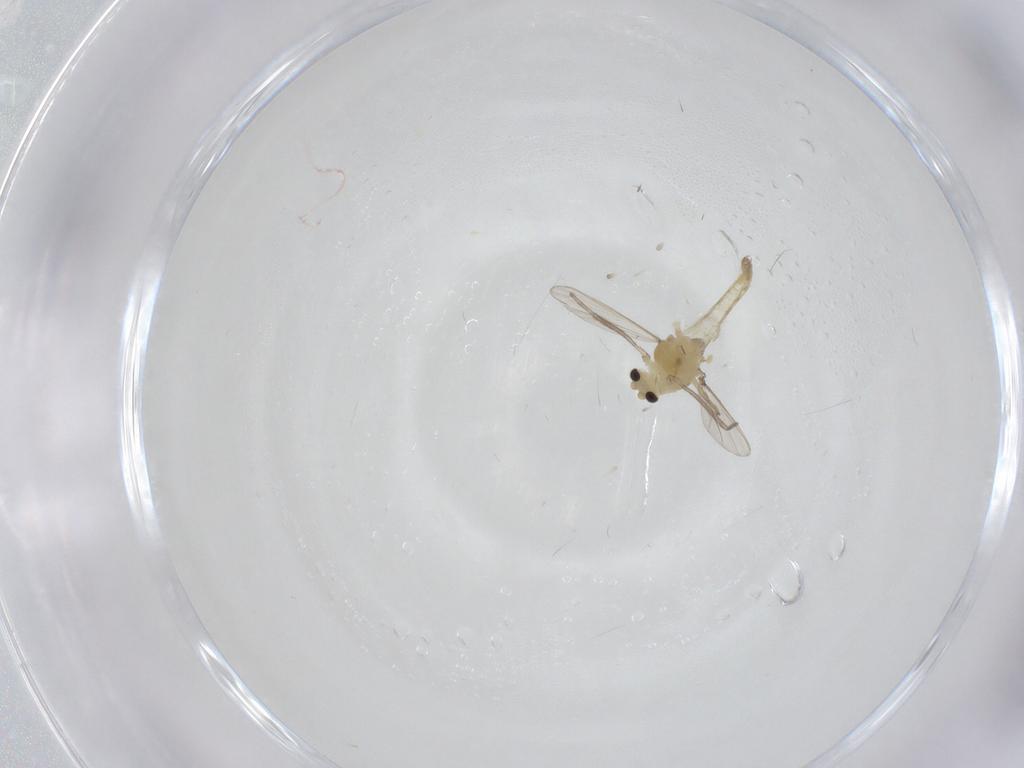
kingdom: Animalia
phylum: Arthropoda
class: Insecta
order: Diptera
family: Chironomidae
